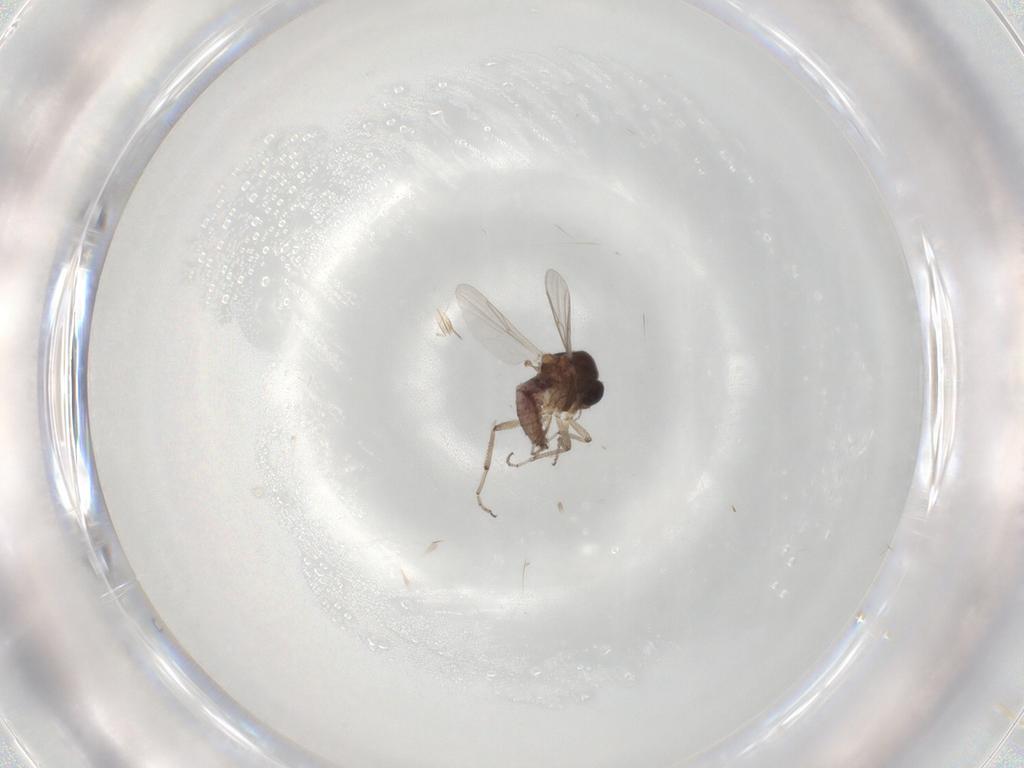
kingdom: Animalia
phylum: Arthropoda
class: Insecta
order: Diptera
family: Ceratopogonidae
